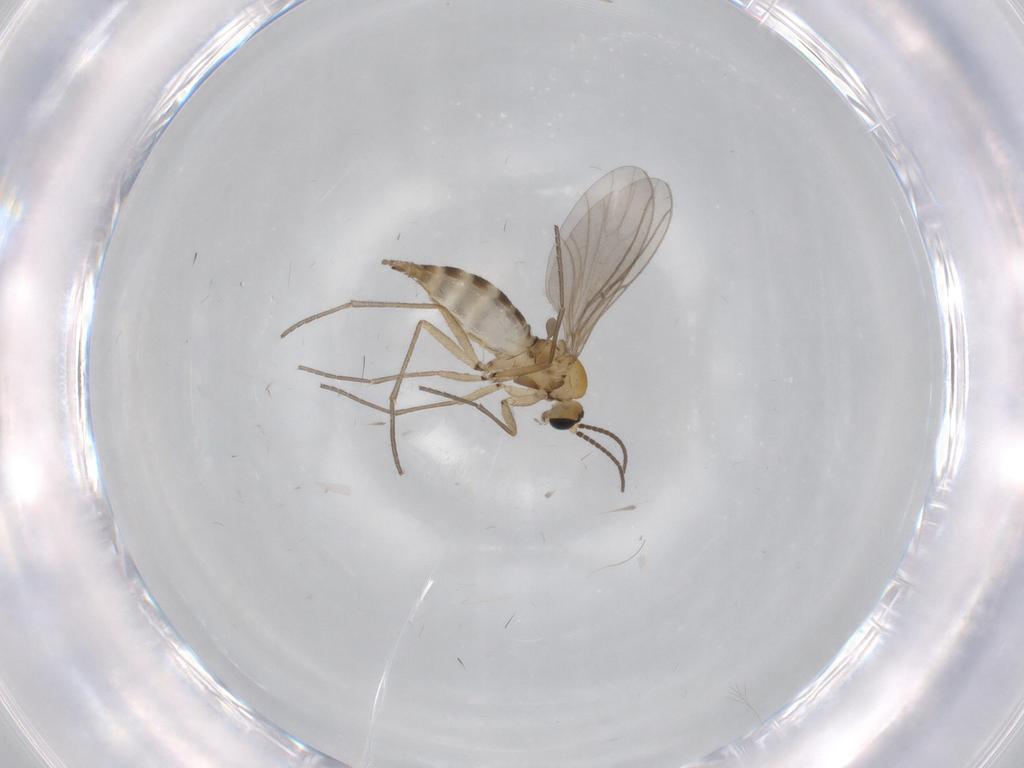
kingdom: Animalia
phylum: Arthropoda
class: Insecta
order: Diptera
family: Sciaridae
